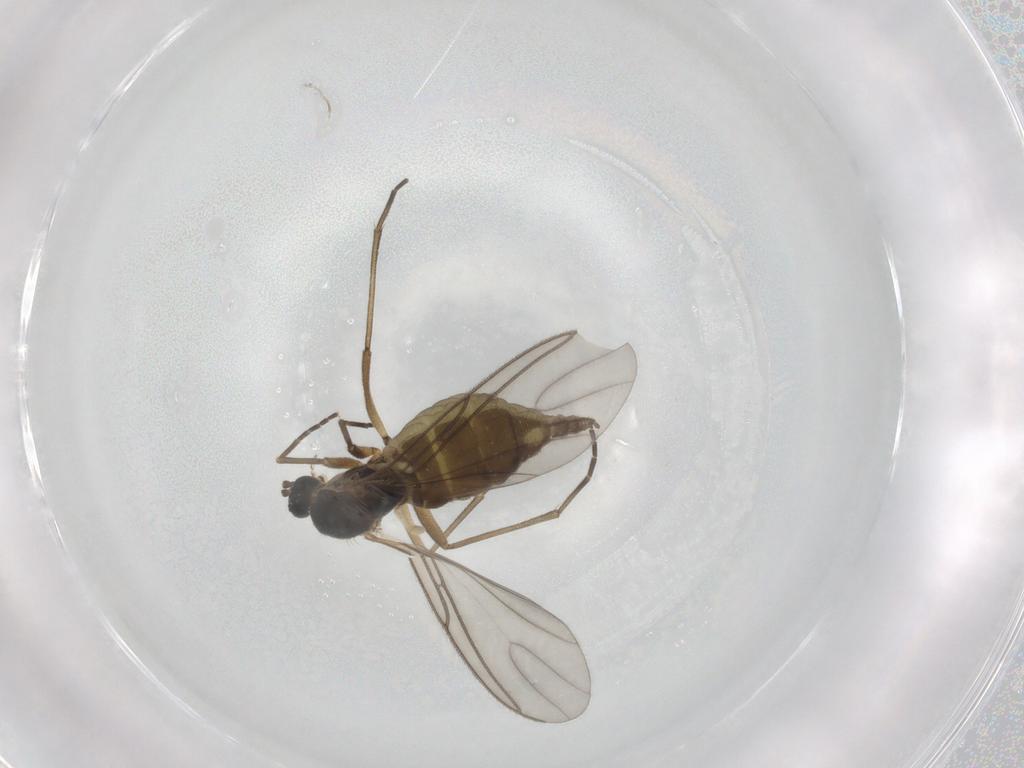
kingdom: Animalia
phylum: Arthropoda
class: Insecta
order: Diptera
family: Sciaridae
